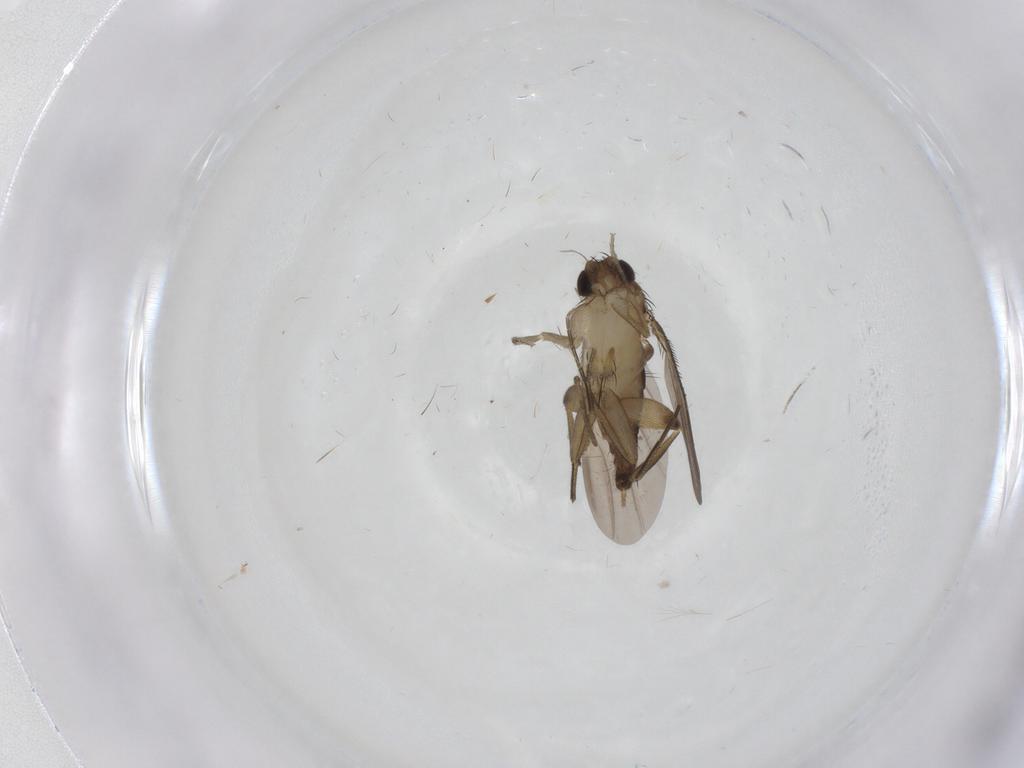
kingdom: Animalia
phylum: Arthropoda
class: Insecta
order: Diptera
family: Phoridae
